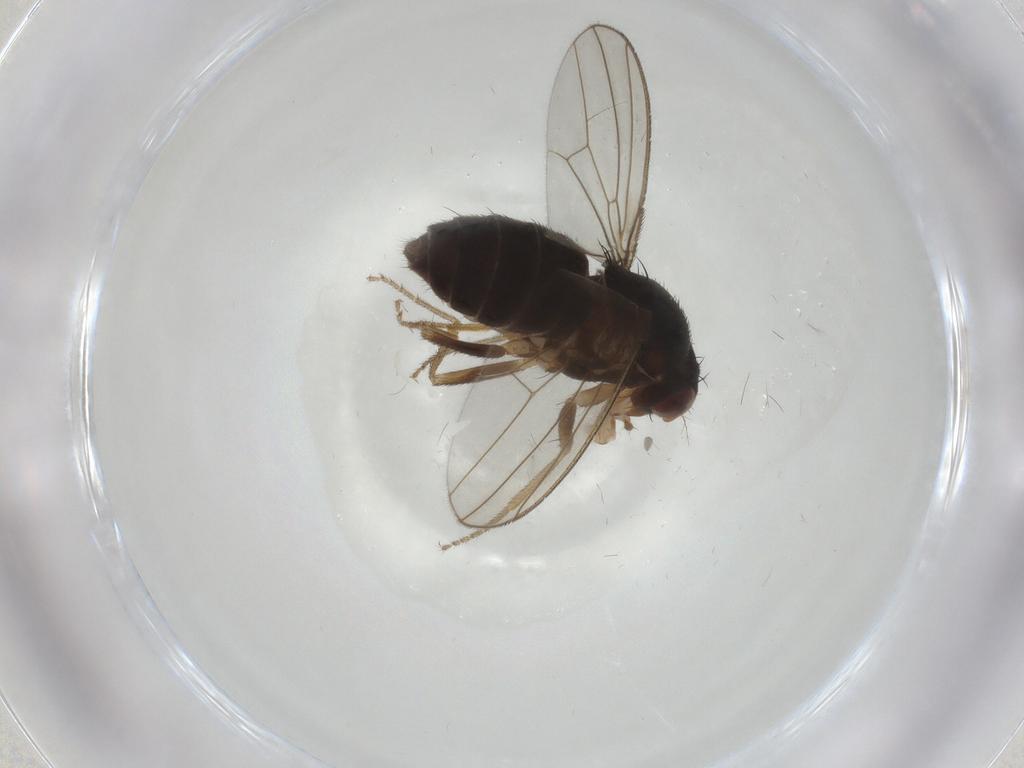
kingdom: Animalia
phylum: Arthropoda
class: Insecta
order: Diptera
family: Drosophilidae
